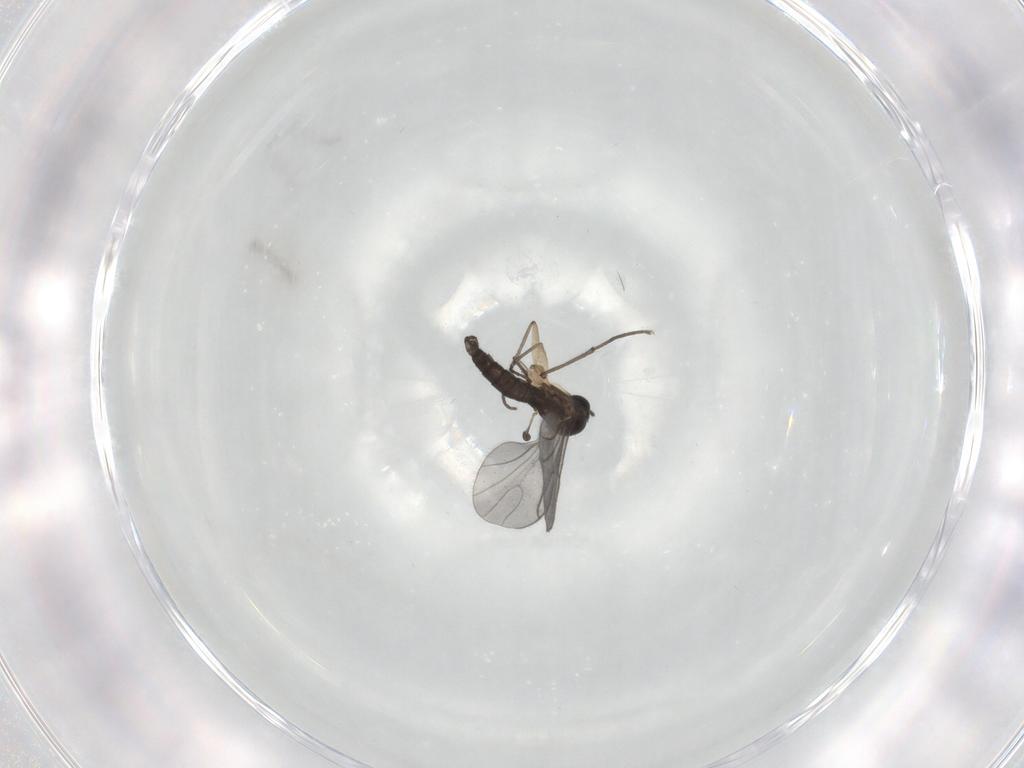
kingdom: Animalia
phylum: Arthropoda
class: Insecta
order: Diptera
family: Sciaridae
